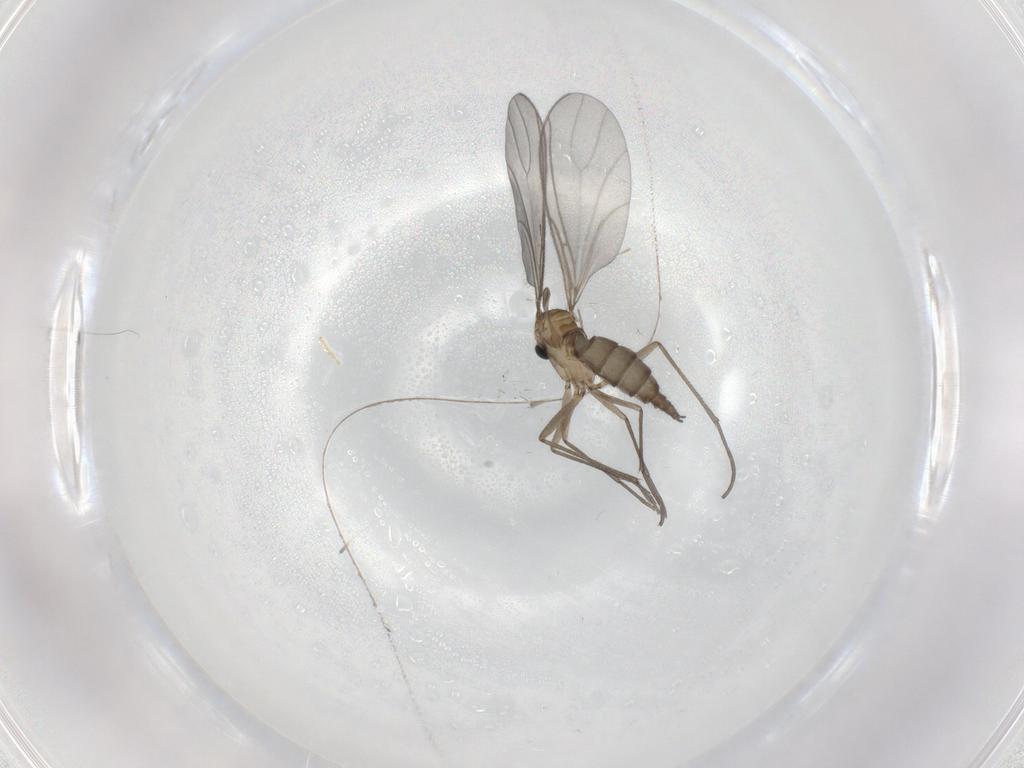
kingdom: Animalia
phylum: Arthropoda
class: Insecta
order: Diptera
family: Sciaridae
